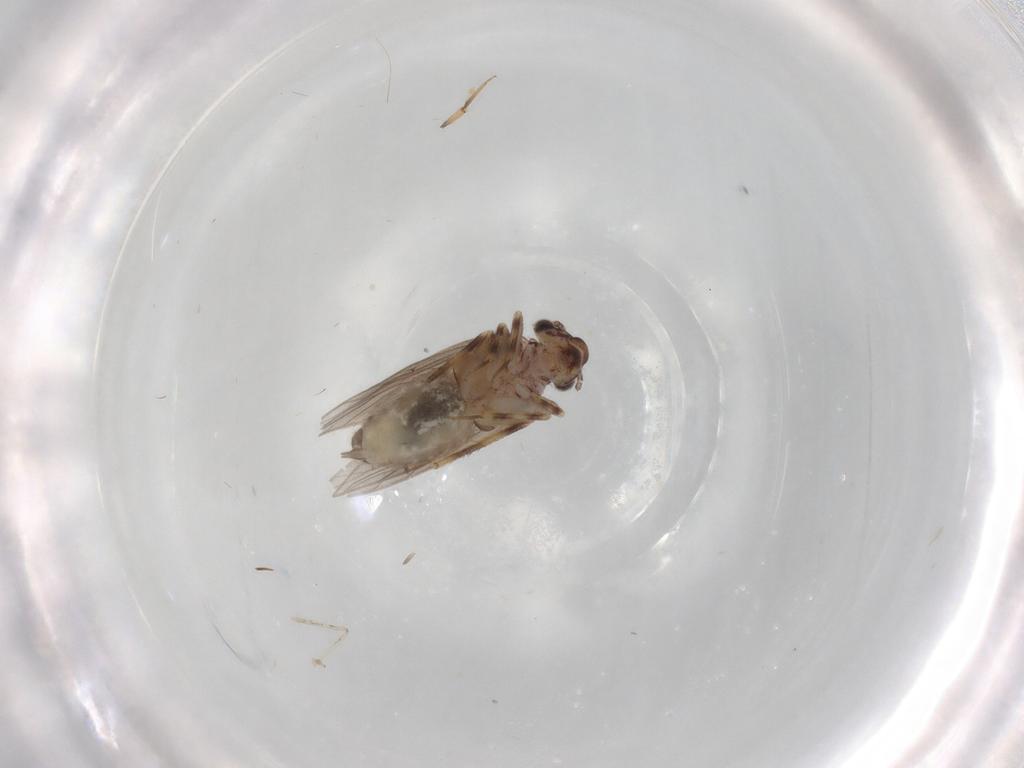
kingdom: Animalia
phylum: Arthropoda
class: Insecta
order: Psocodea
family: Lepidopsocidae
